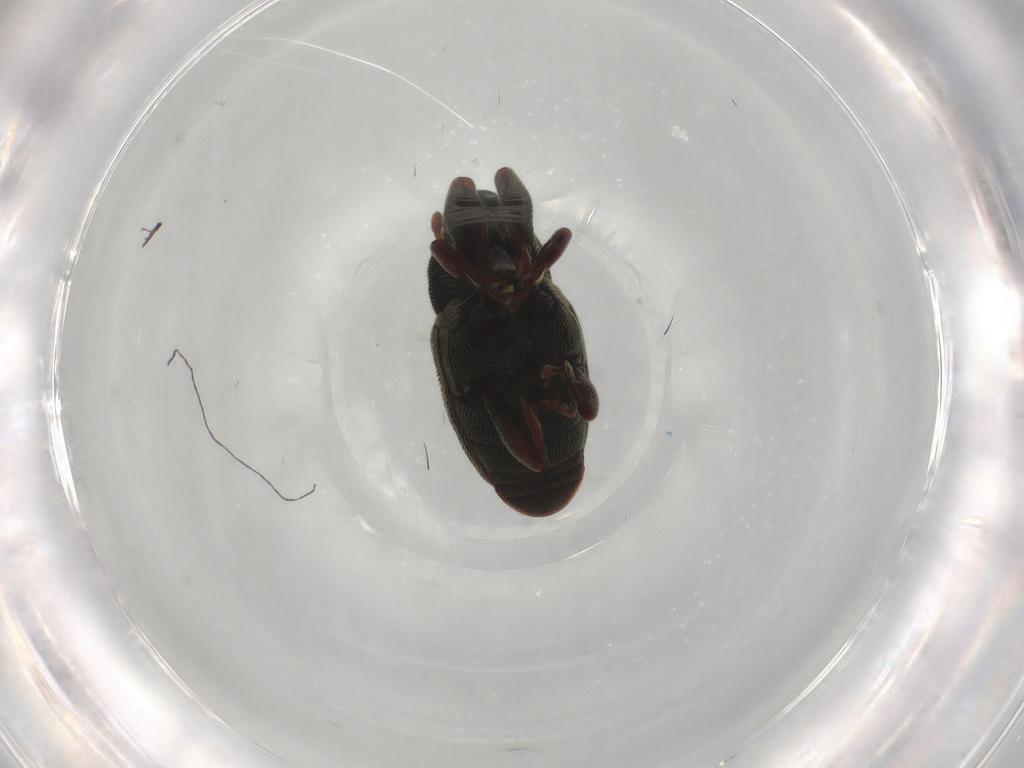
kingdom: Animalia
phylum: Arthropoda
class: Insecta
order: Coleoptera
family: Curculionidae
